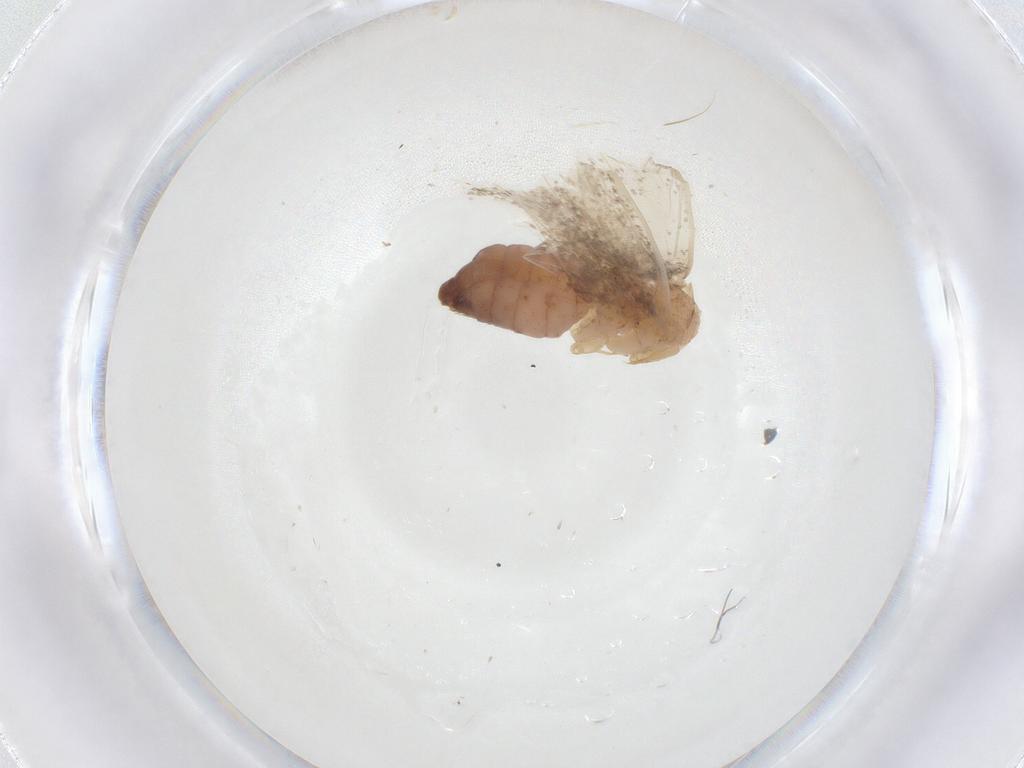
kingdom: Animalia
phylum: Arthropoda
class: Insecta
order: Lepidoptera
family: Tineidae
